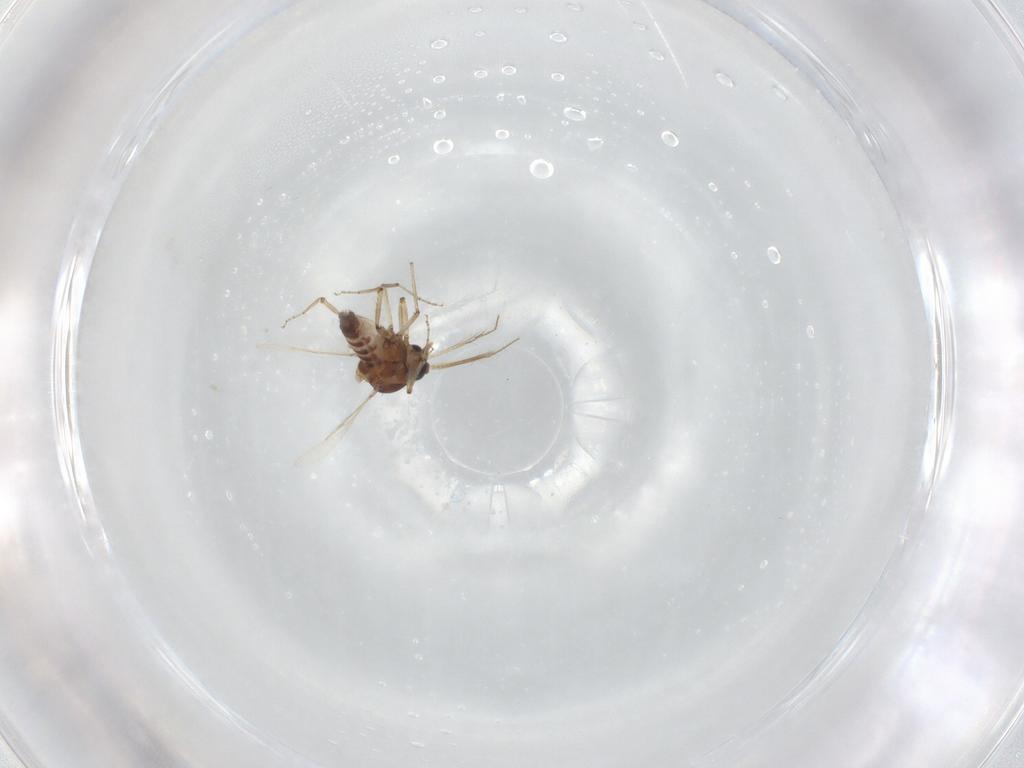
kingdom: Animalia
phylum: Arthropoda
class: Insecta
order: Diptera
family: Ceratopogonidae
